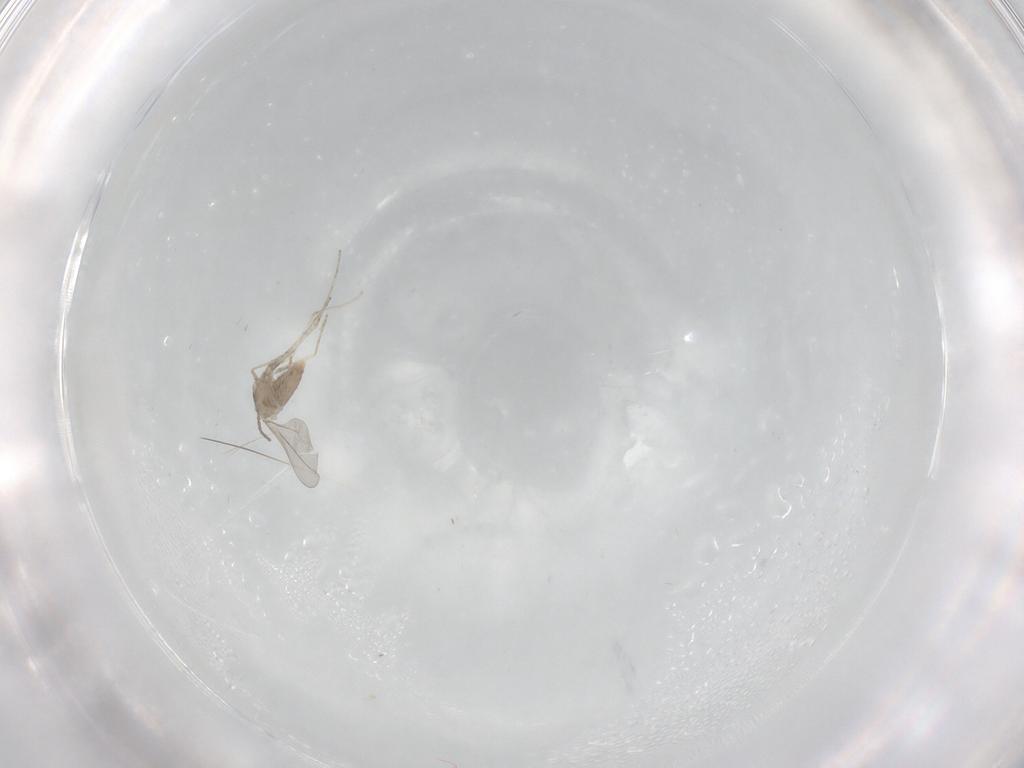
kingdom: Animalia
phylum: Arthropoda
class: Insecta
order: Diptera
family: Cecidomyiidae
